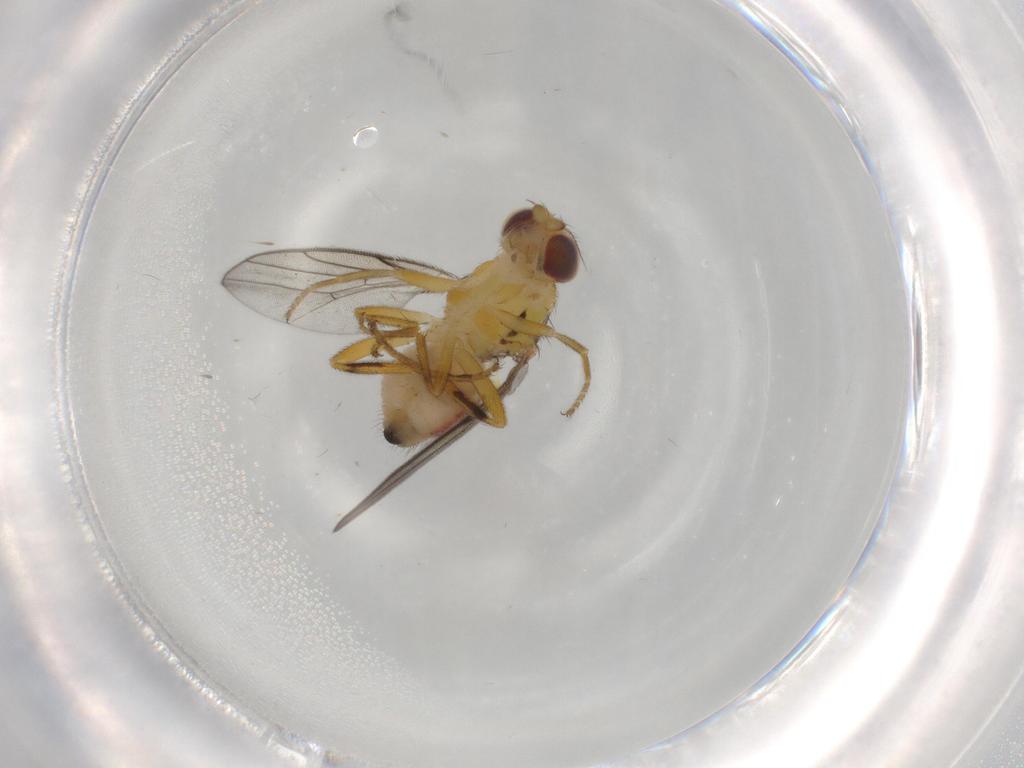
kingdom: Animalia
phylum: Arthropoda
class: Insecta
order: Diptera
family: Chloropidae
